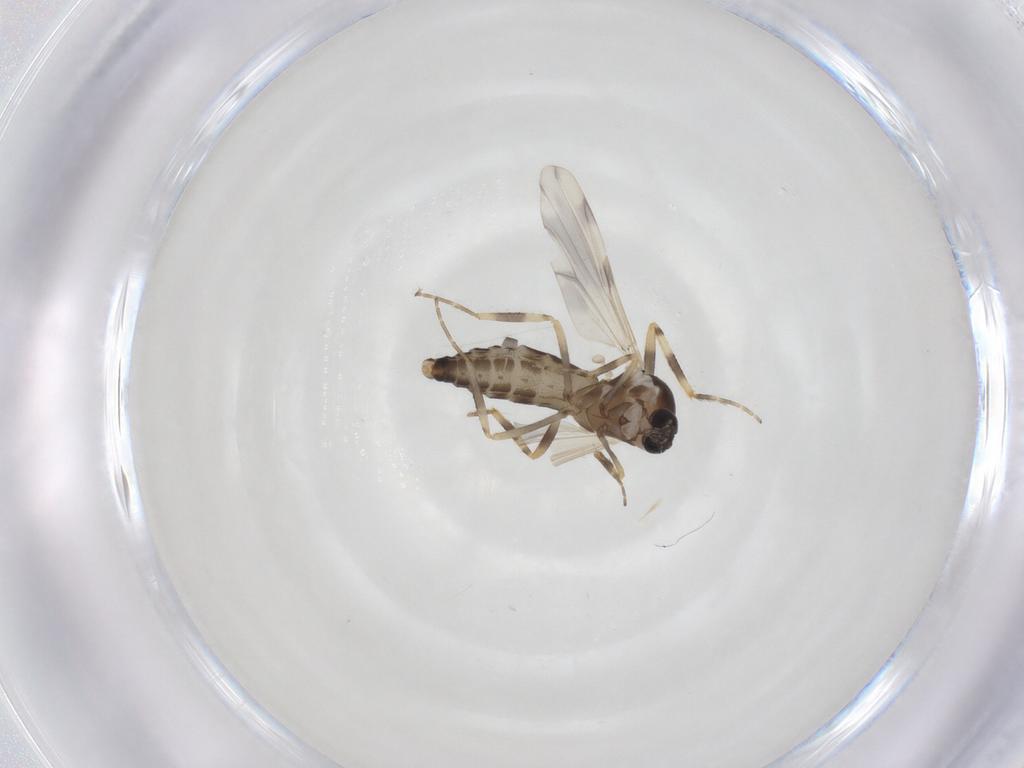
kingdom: Animalia
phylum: Arthropoda
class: Insecta
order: Diptera
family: Ceratopogonidae
